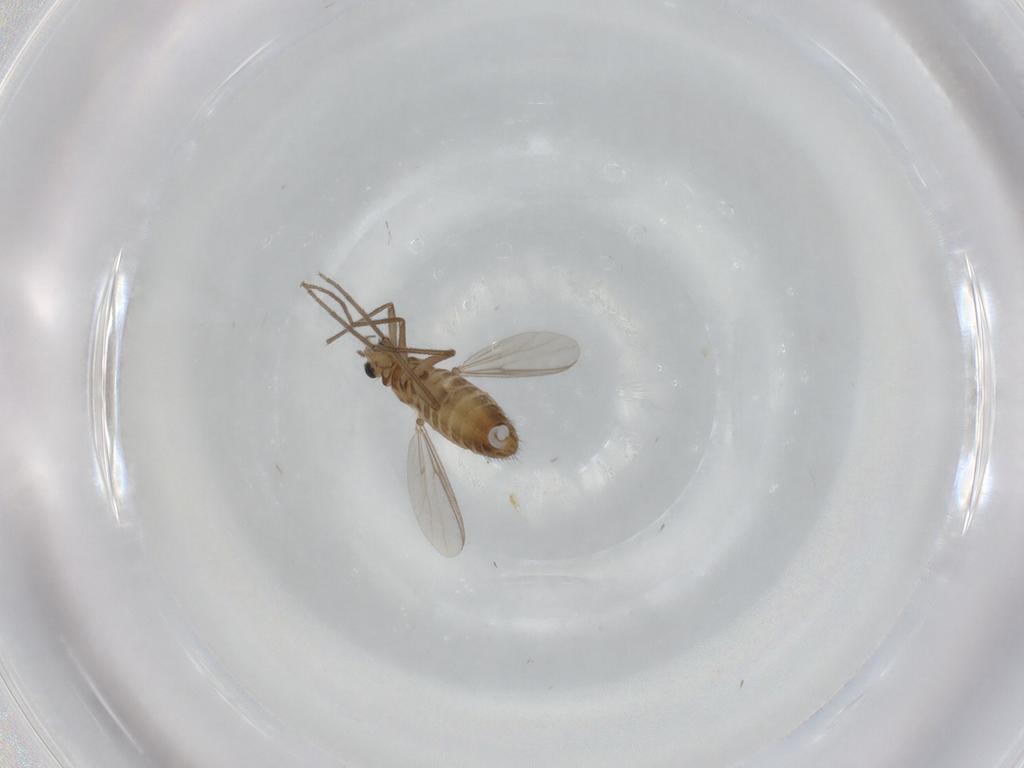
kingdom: Animalia
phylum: Arthropoda
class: Insecta
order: Diptera
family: Chironomidae
